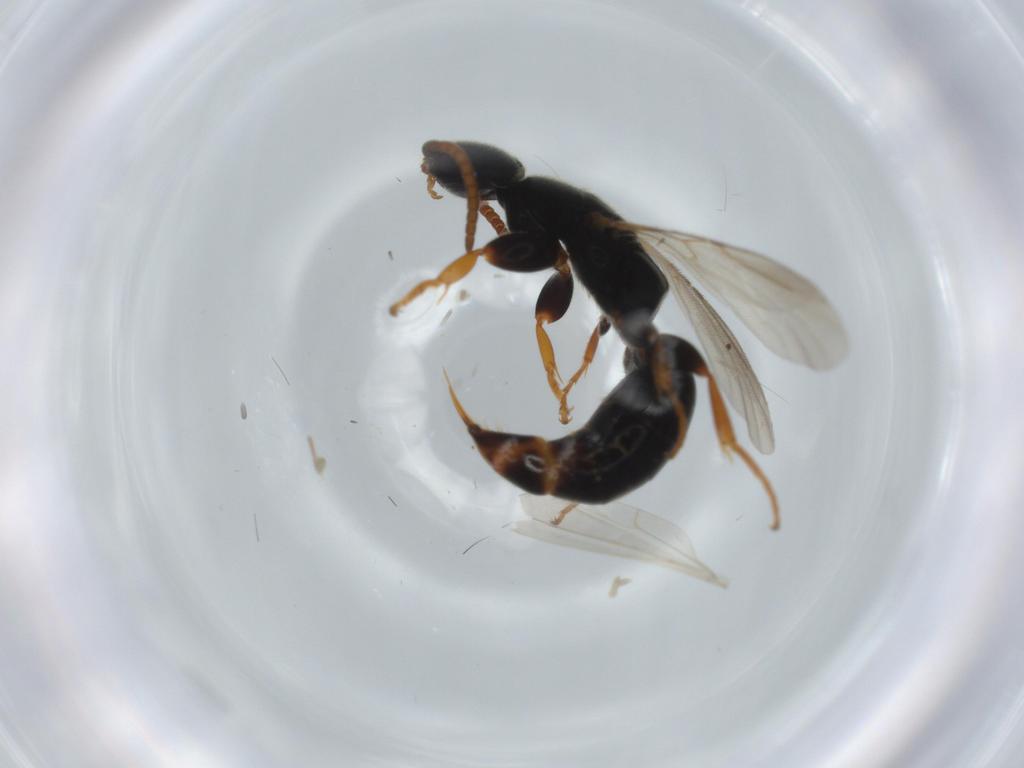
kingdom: Animalia
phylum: Arthropoda
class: Insecta
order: Hymenoptera
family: Bethylidae
